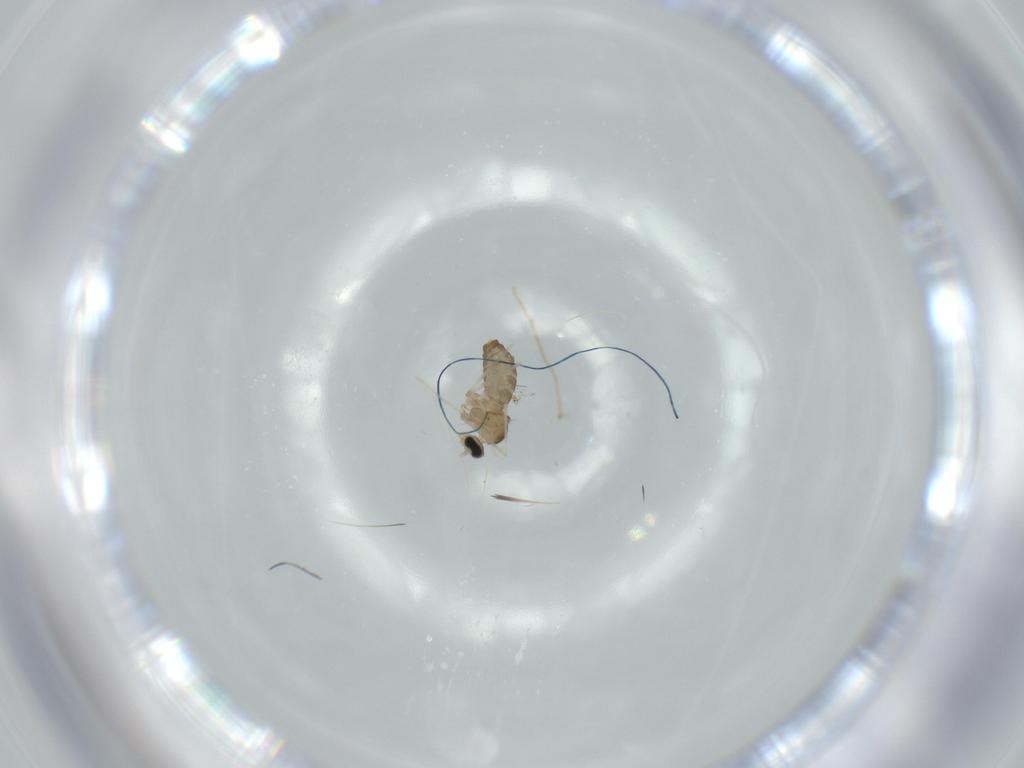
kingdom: Animalia
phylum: Arthropoda
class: Insecta
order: Diptera
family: Cecidomyiidae
